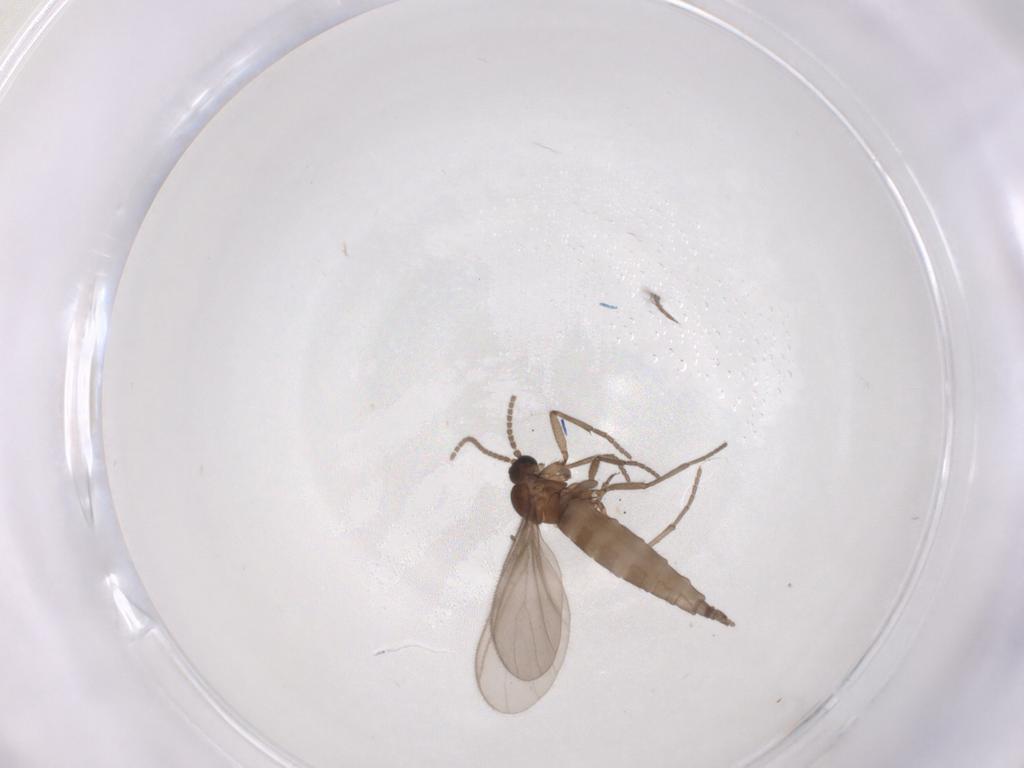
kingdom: Animalia
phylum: Arthropoda
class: Insecta
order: Diptera
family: Sciaridae
